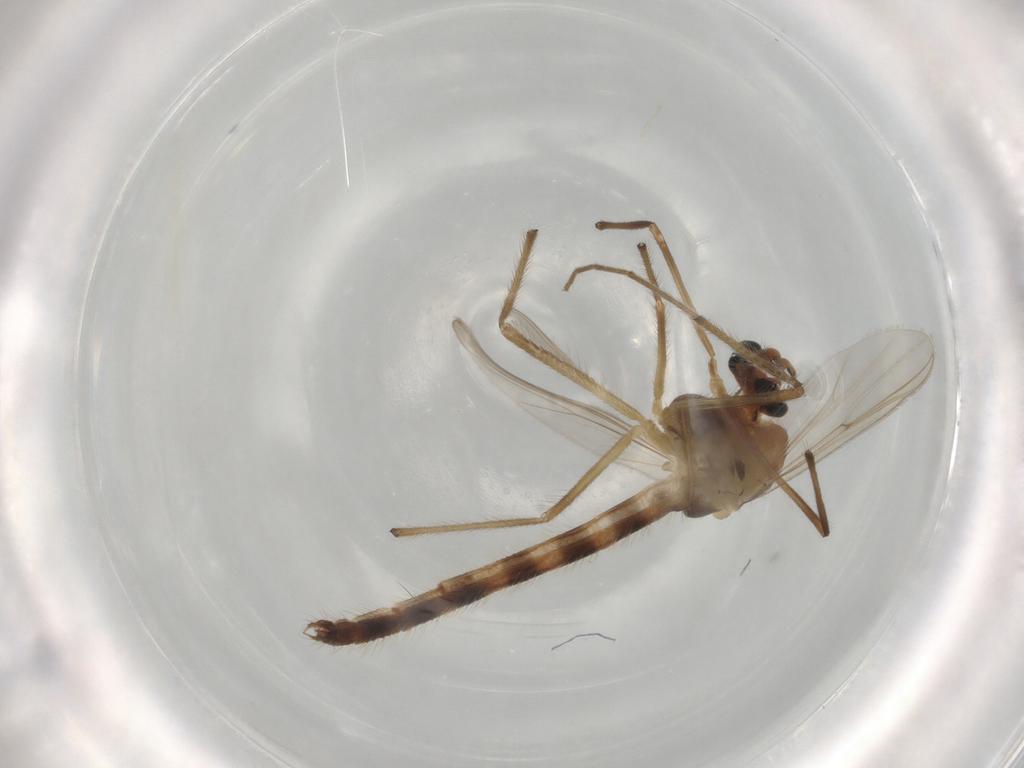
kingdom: Animalia
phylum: Arthropoda
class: Insecta
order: Diptera
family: Chironomidae
